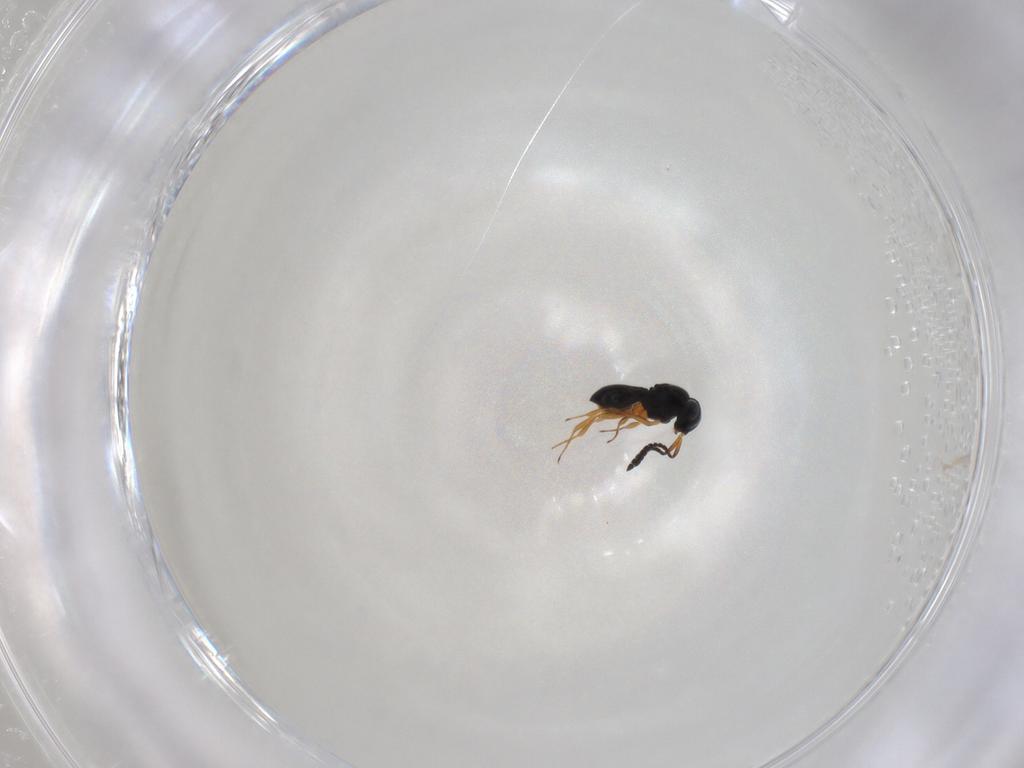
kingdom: Animalia
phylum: Arthropoda
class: Insecta
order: Hymenoptera
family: Scelionidae
